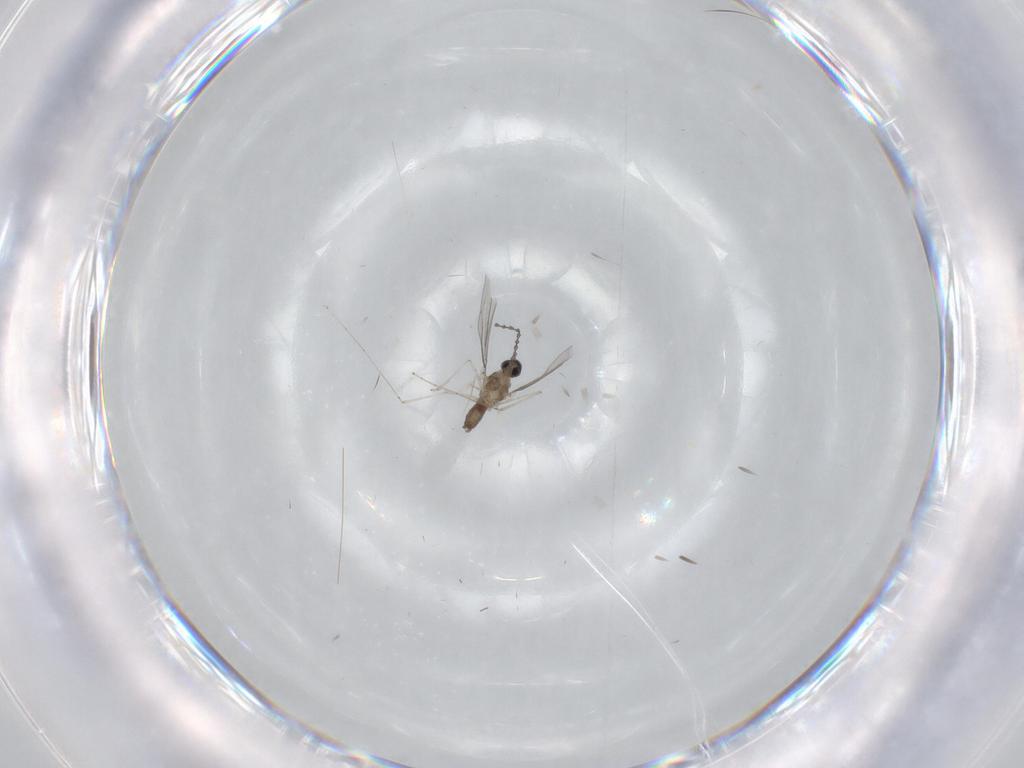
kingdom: Animalia
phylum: Arthropoda
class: Insecta
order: Diptera
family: Cecidomyiidae
